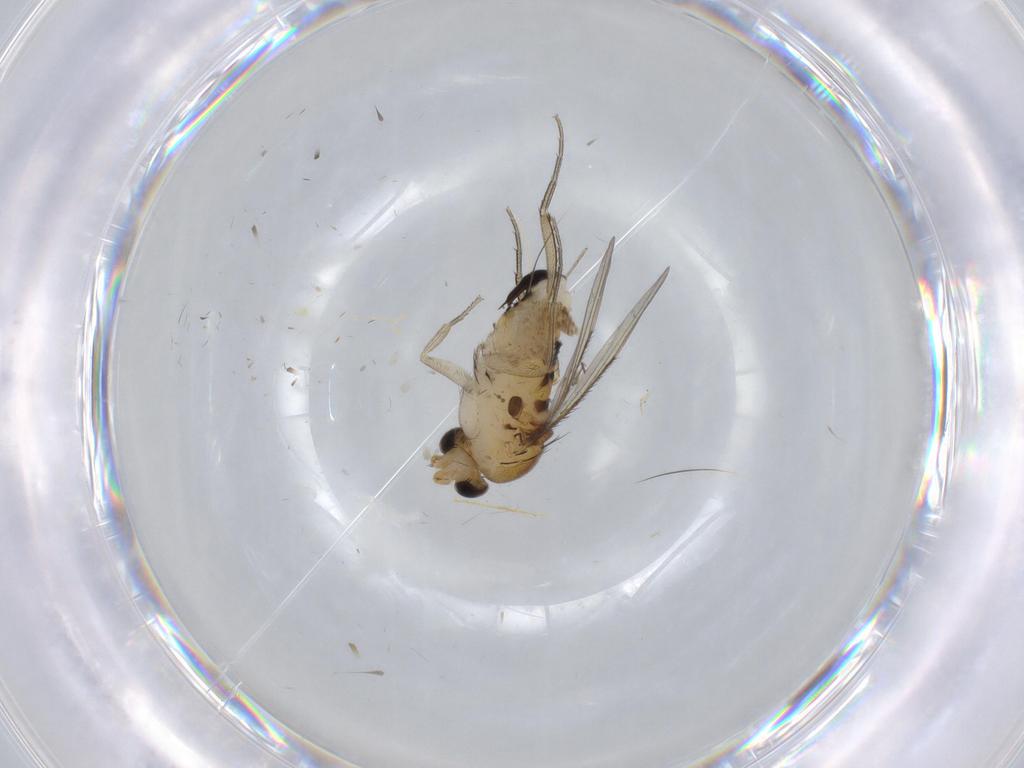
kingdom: Animalia
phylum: Arthropoda
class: Insecta
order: Diptera
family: Phoridae
